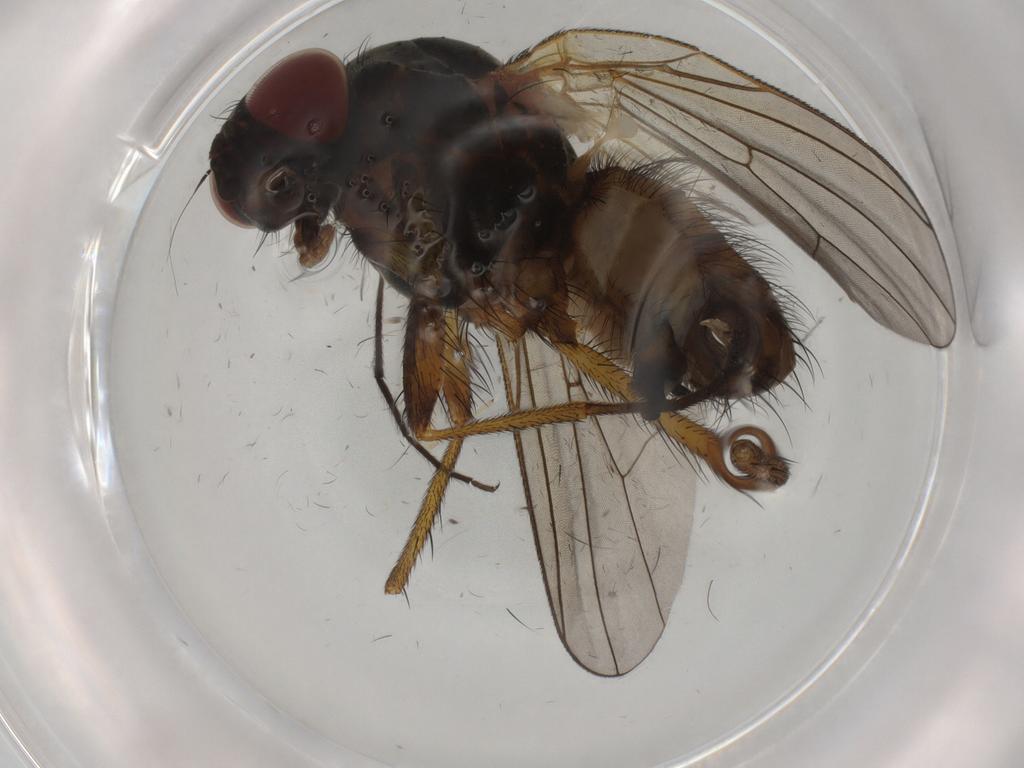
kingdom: Animalia
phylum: Arthropoda
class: Insecta
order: Diptera
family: Anthomyiidae
